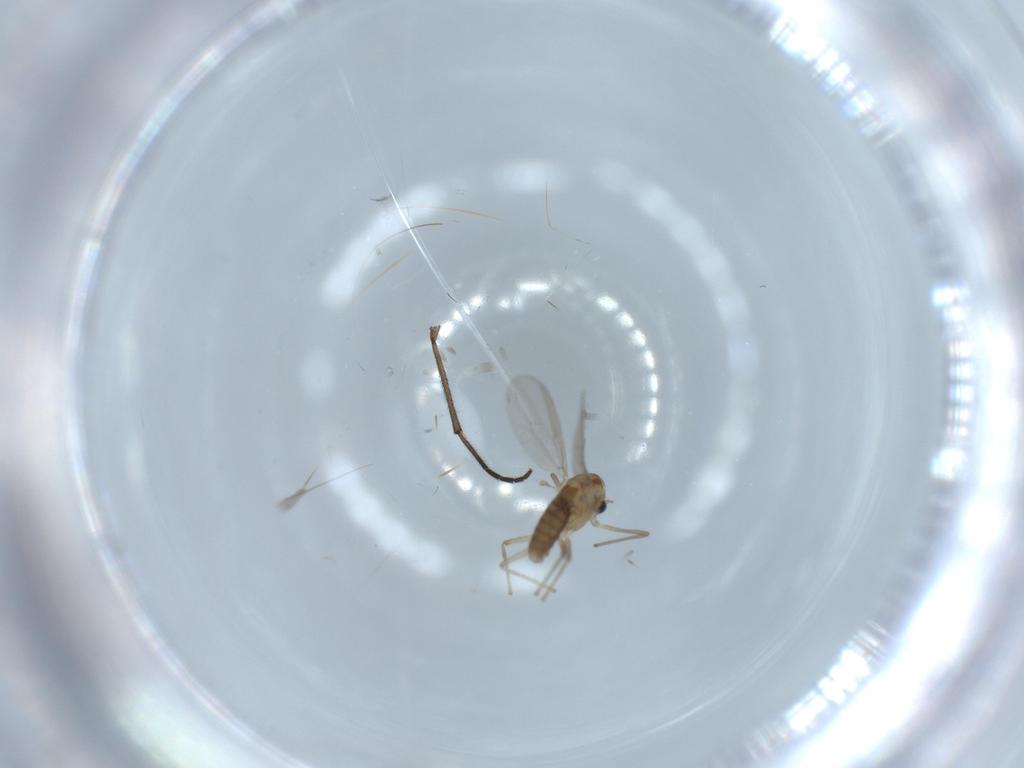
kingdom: Animalia
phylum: Arthropoda
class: Insecta
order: Diptera
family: Chironomidae
